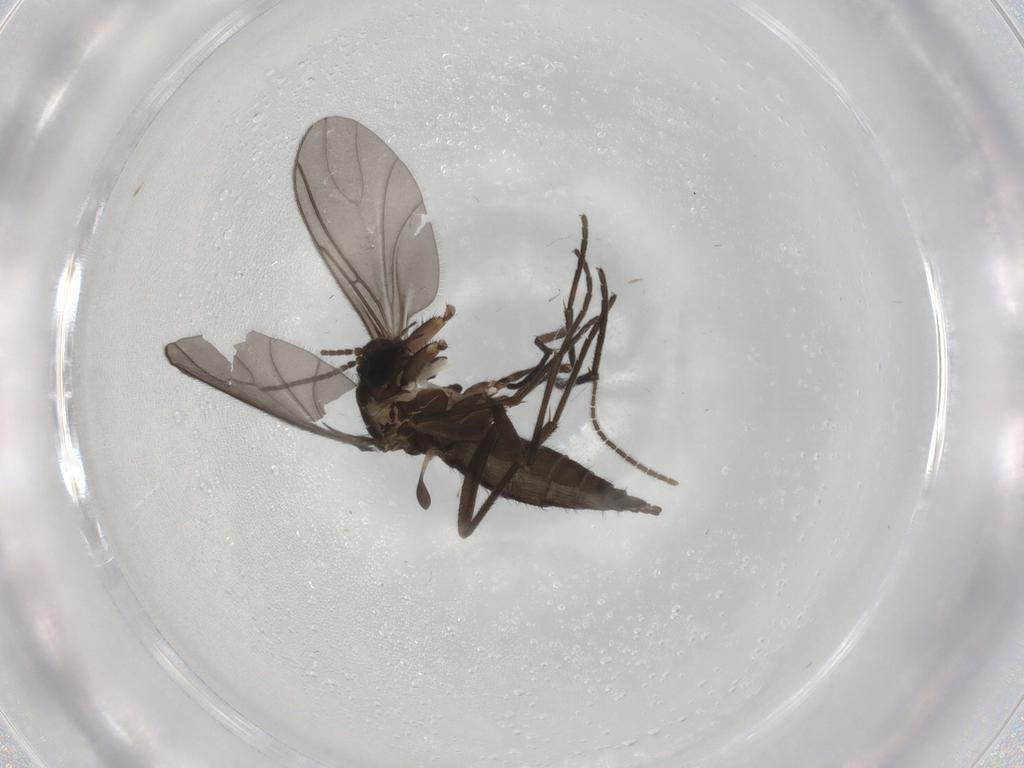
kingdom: Animalia
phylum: Arthropoda
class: Insecta
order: Diptera
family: Sciaridae
